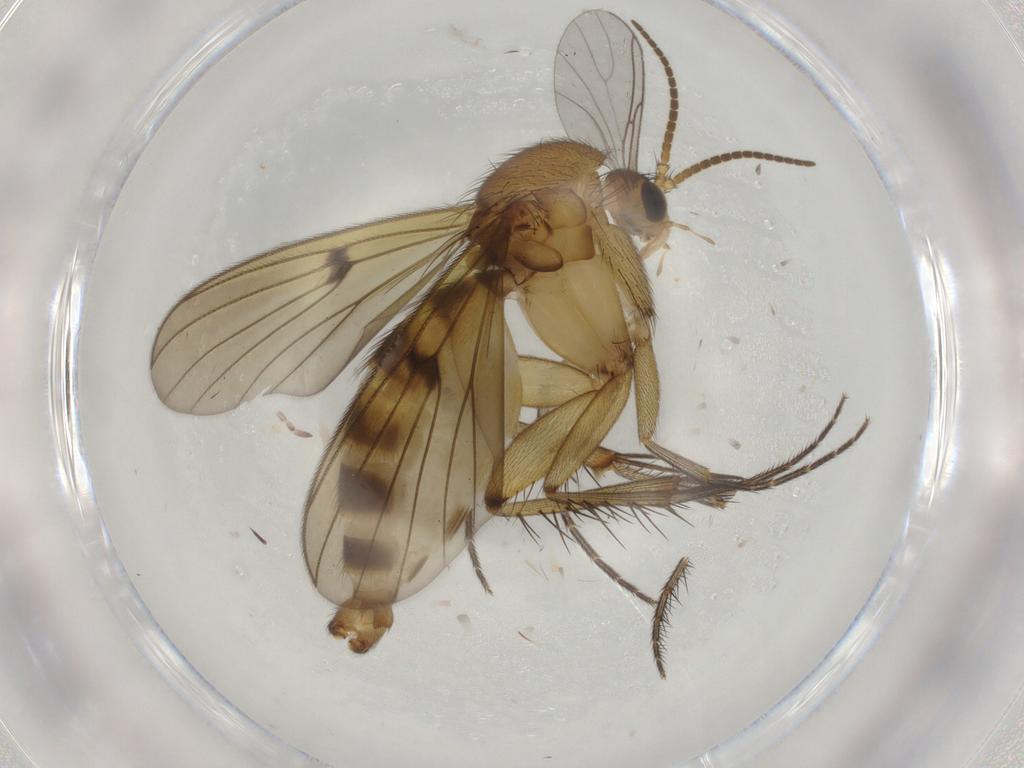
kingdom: Animalia
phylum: Arthropoda
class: Insecta
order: Diptera
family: Mycetophilidae
